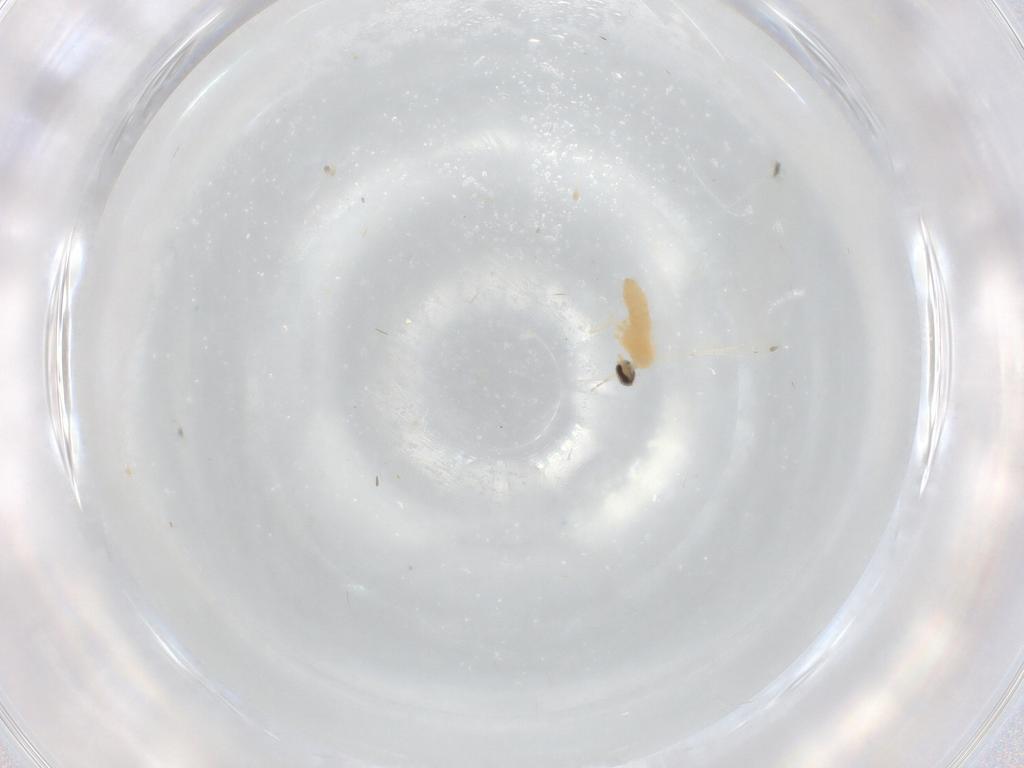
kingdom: Animalia
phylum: Arthropoda
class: Insecta
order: Diptera
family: Cecidomyiidae
